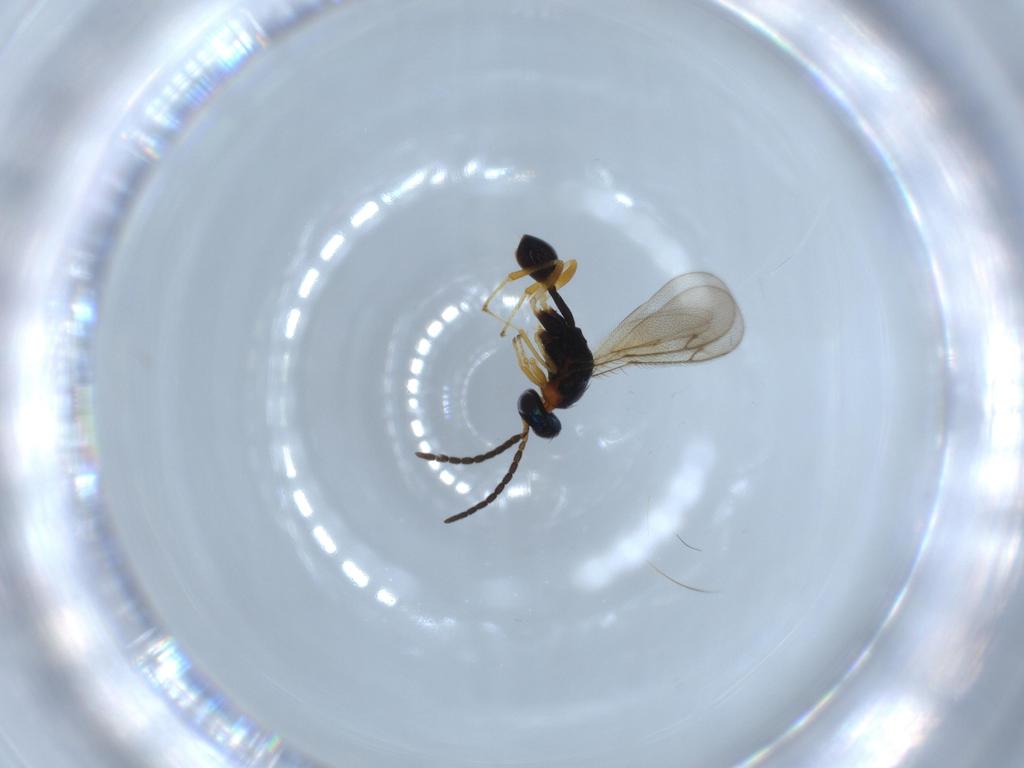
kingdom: Animalia
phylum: Arthropoda
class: Insecta
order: Hymenoptera
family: Diparidae
